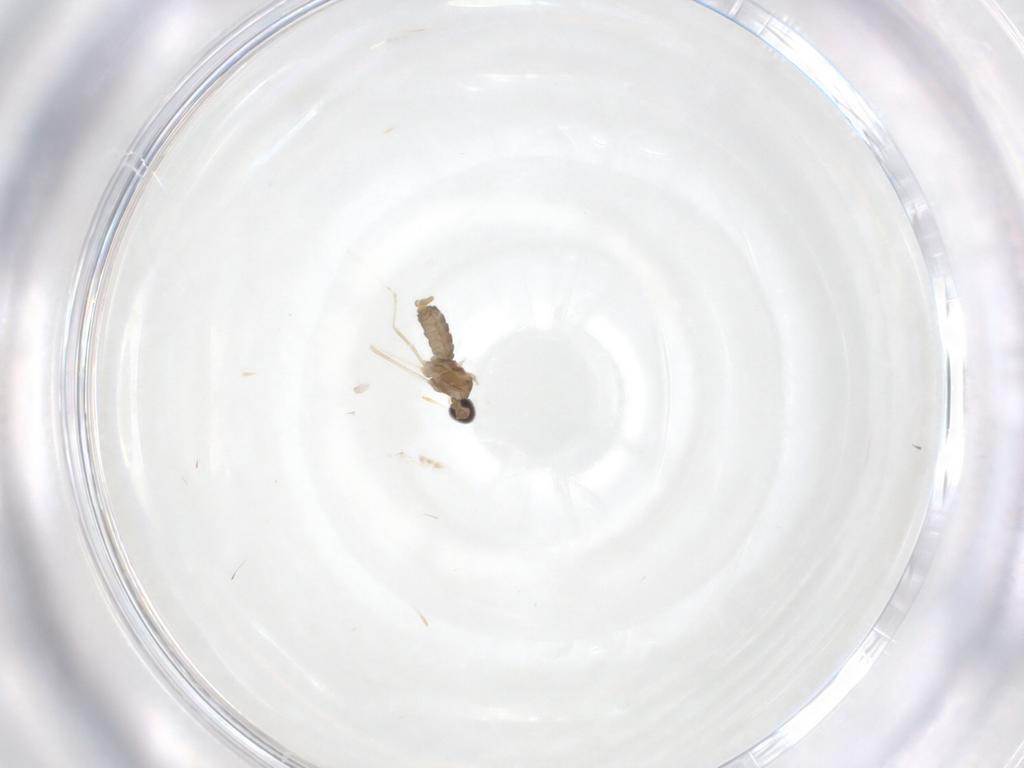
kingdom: Animalia
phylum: Arthropoda
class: Insecta
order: Diptera
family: Cecidomyiidae
